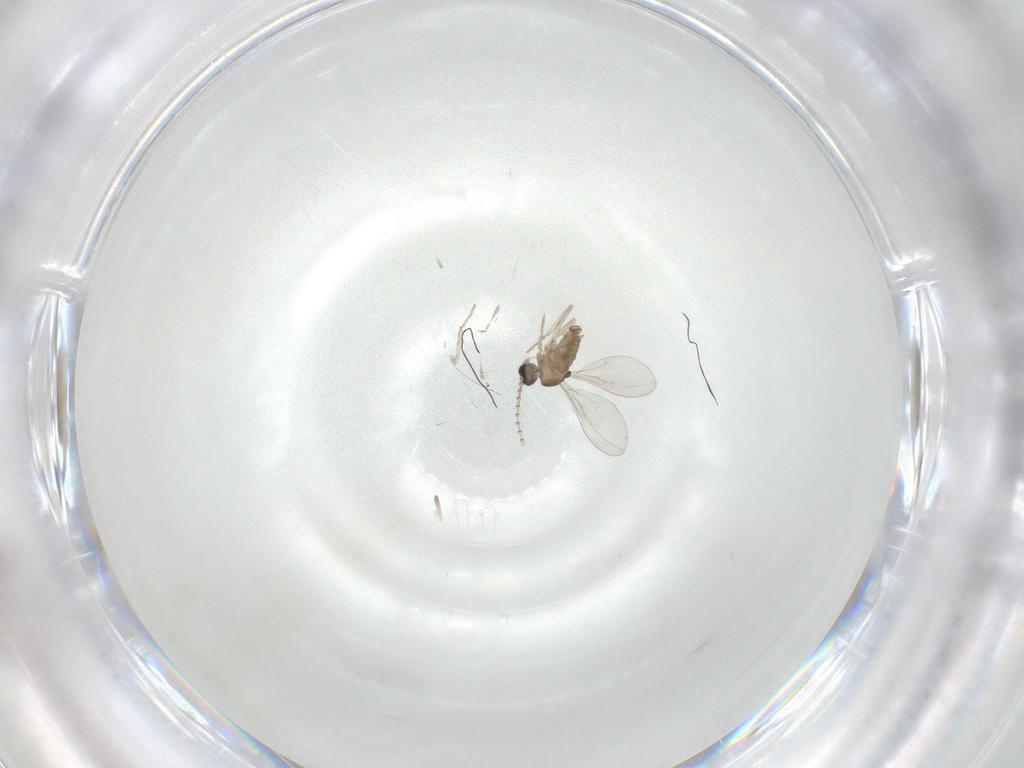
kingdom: Animalia
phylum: Arthropoda
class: Insecta
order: Diptera
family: Cecidomyiidae
